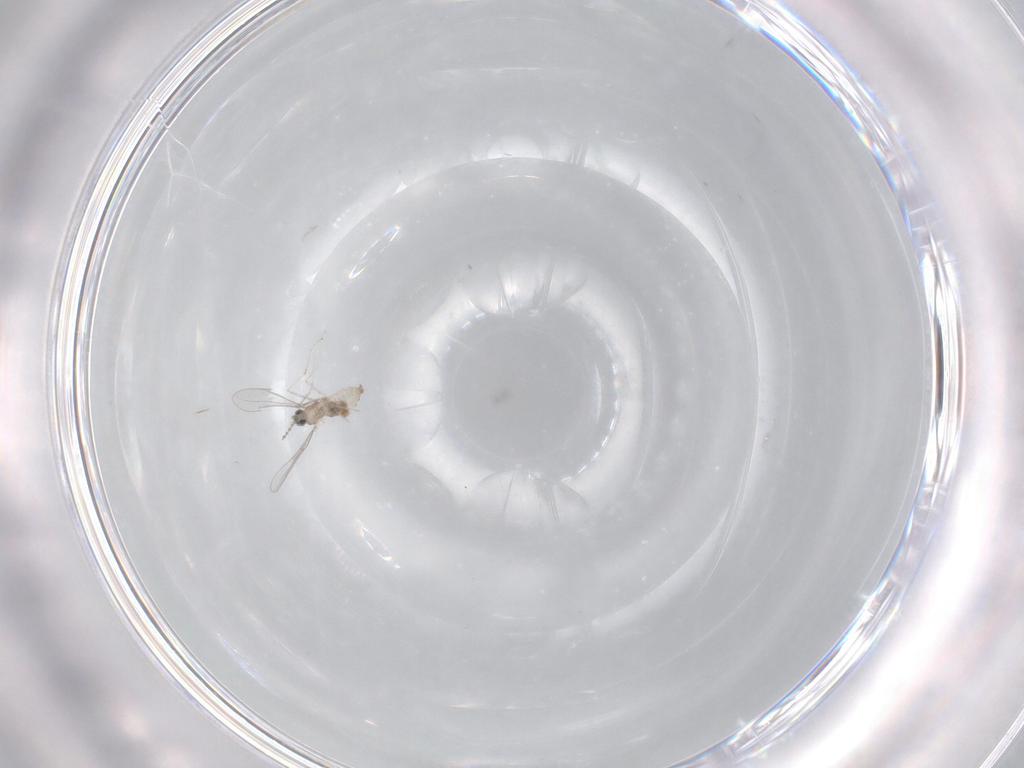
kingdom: Animalia
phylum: Arthropoda
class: Insecta
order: Diptera
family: Cecidomyiidae
